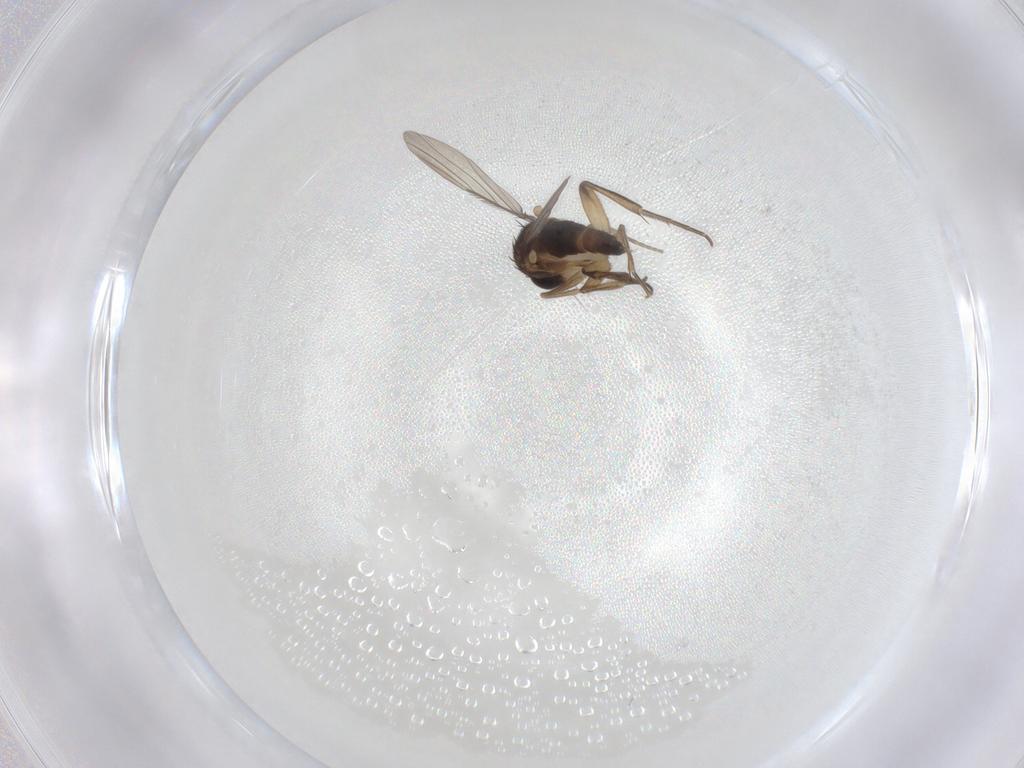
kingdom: Animalia
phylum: Arthropoda
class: Insecta
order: Diptera
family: Phoridae
